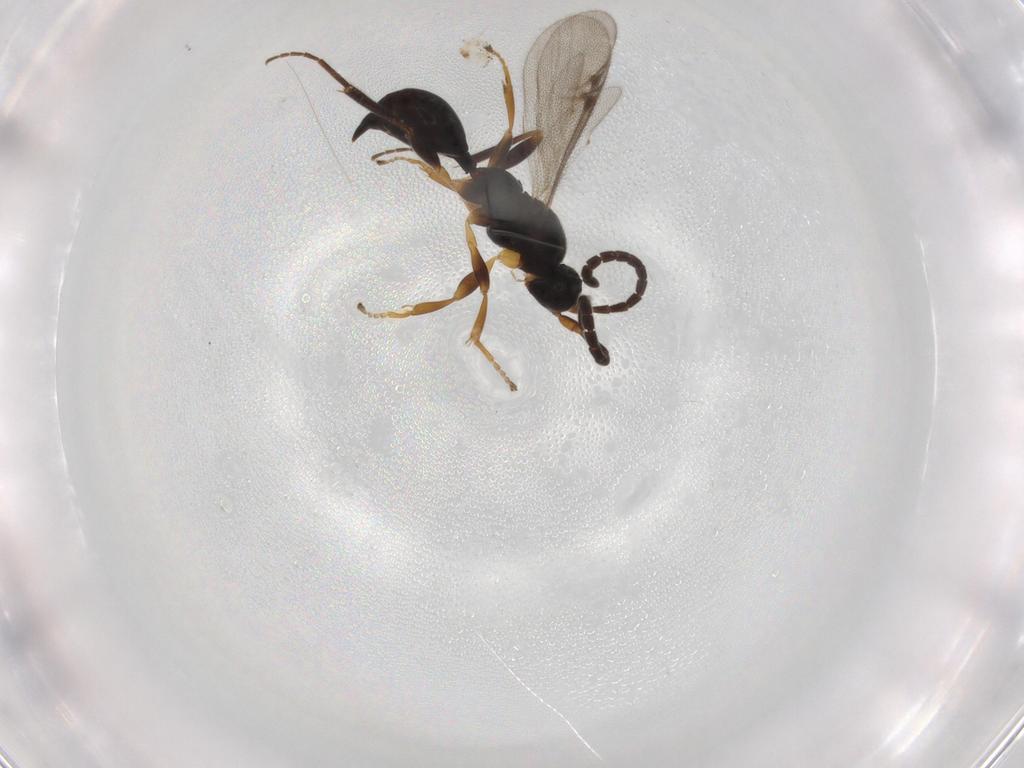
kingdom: Animalia
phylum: Arthropoda
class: Insecta
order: Hymenoptera
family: Proctotrupidae
